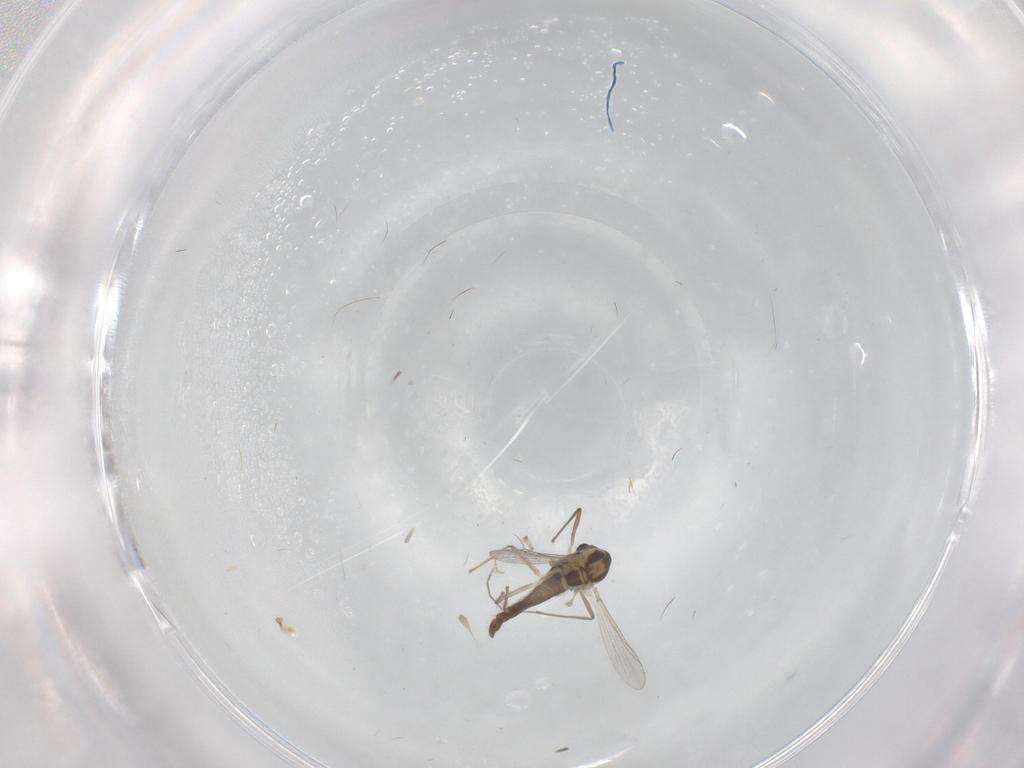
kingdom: Animalia
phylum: Arthropoda
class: Insecta
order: Diptera
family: Chironomidae
